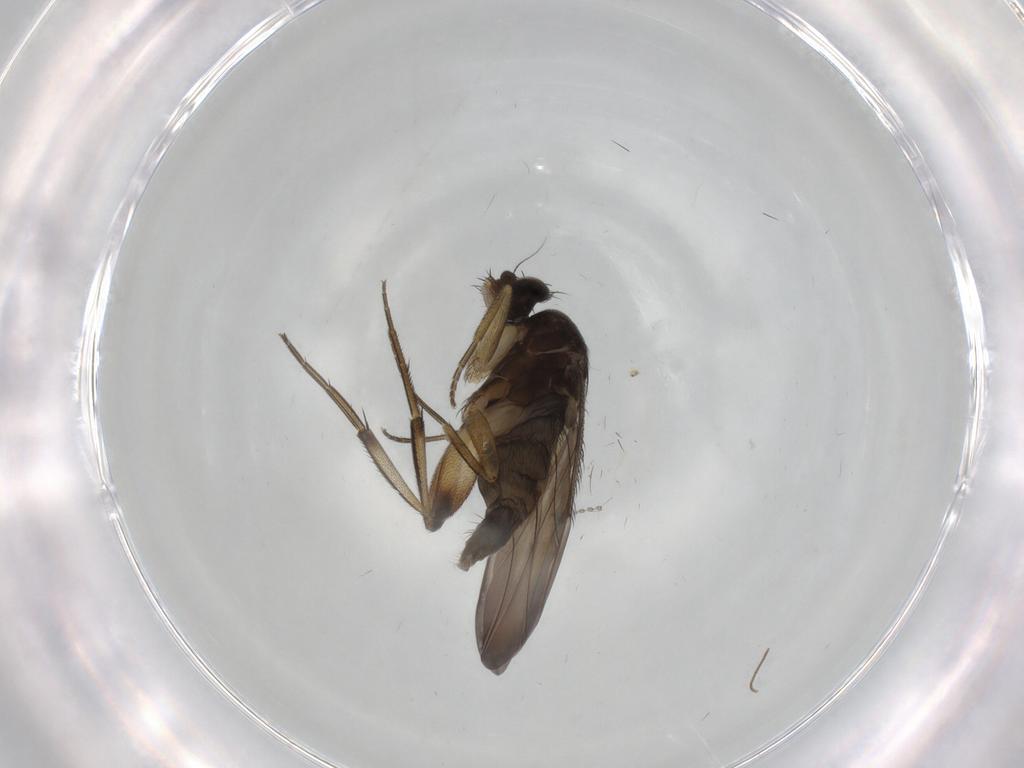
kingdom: Animalia
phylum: Arthropoda
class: Insecta
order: Diptera
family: Phoridae
